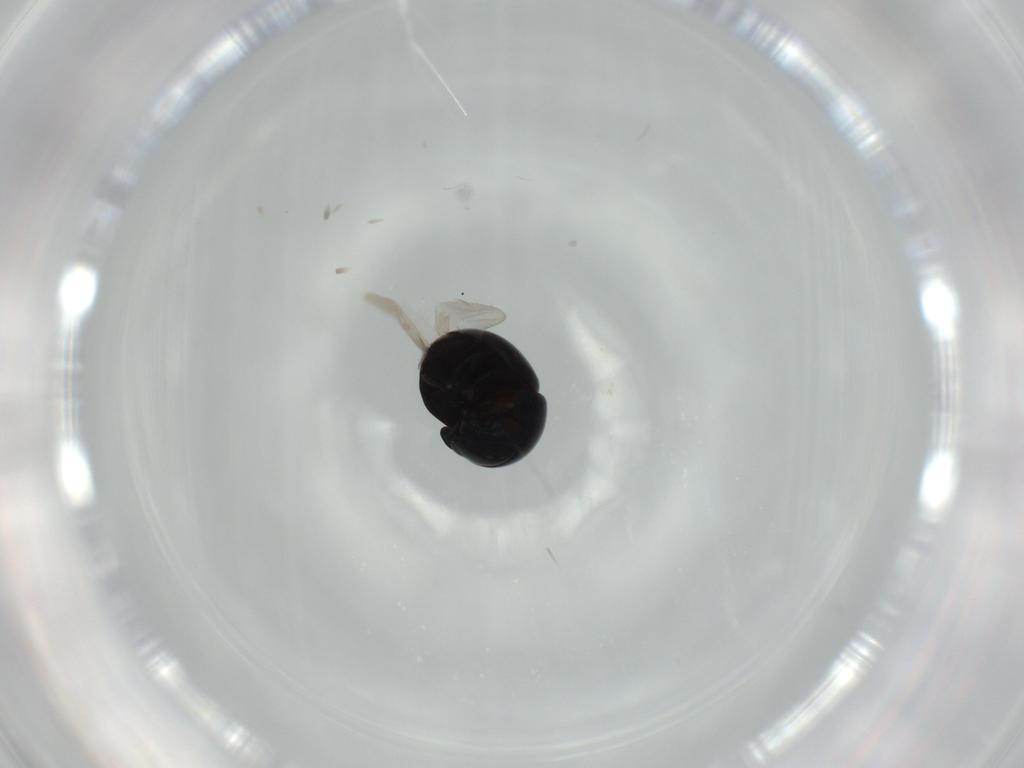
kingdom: Animalia
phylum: Arthropoda
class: Insecta
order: Coleoptera
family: Cybocephalidae
